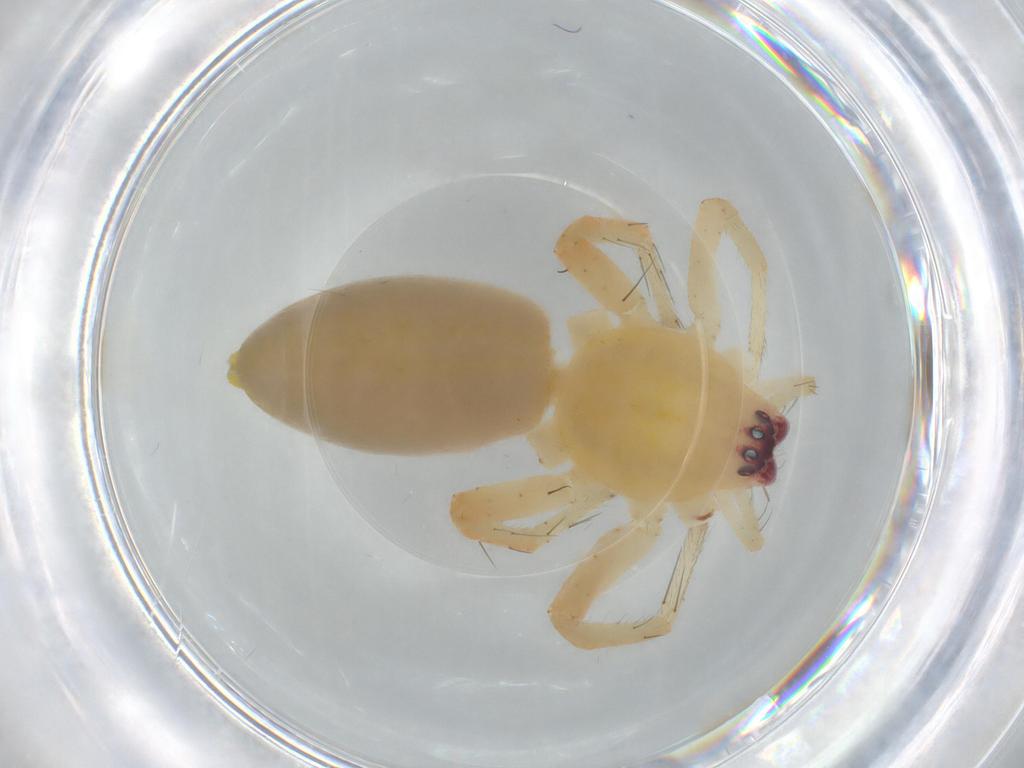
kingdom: Animalia
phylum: Arthropoda
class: Arachnida
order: Araneae
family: Anyphaenidae
